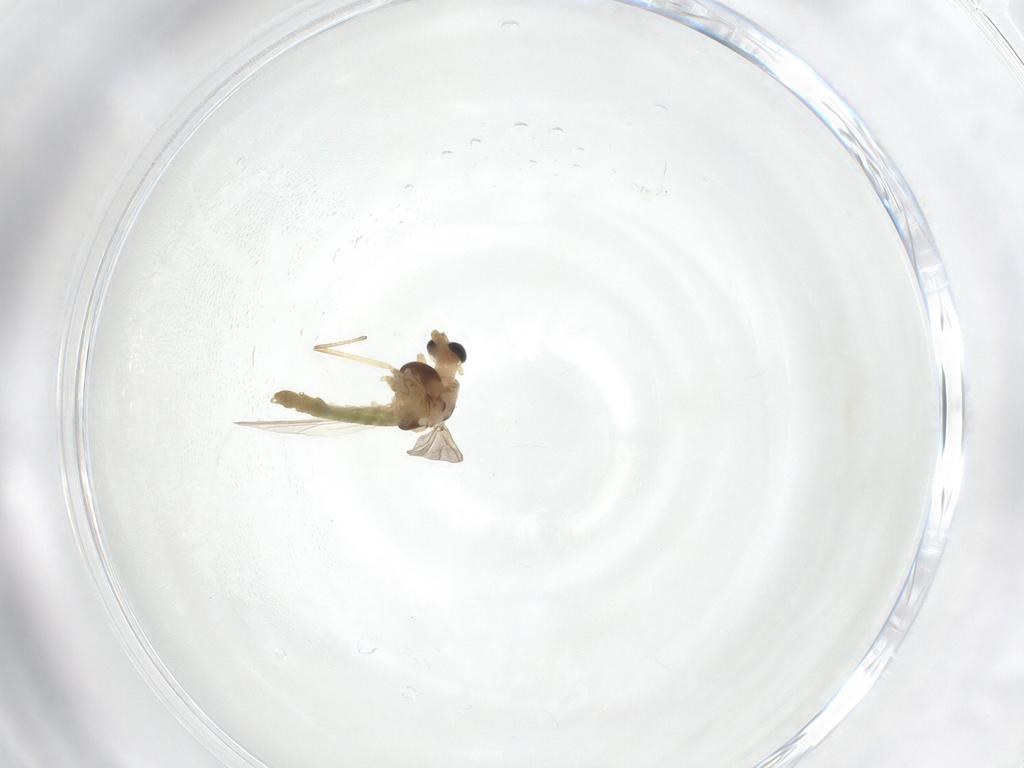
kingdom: Animalia
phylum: Arthropoda
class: Insecta
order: Diptera
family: Chironomidae
